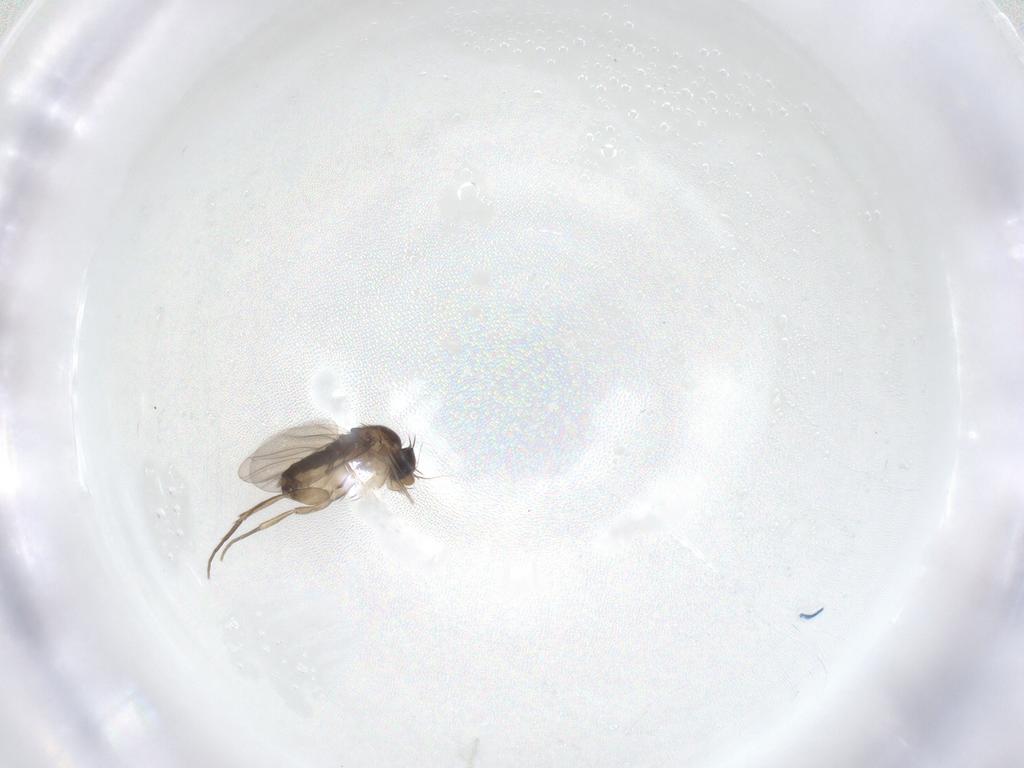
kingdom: Animalia
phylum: Arthropoda
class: Insecta
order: Diptera
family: Phoridae
